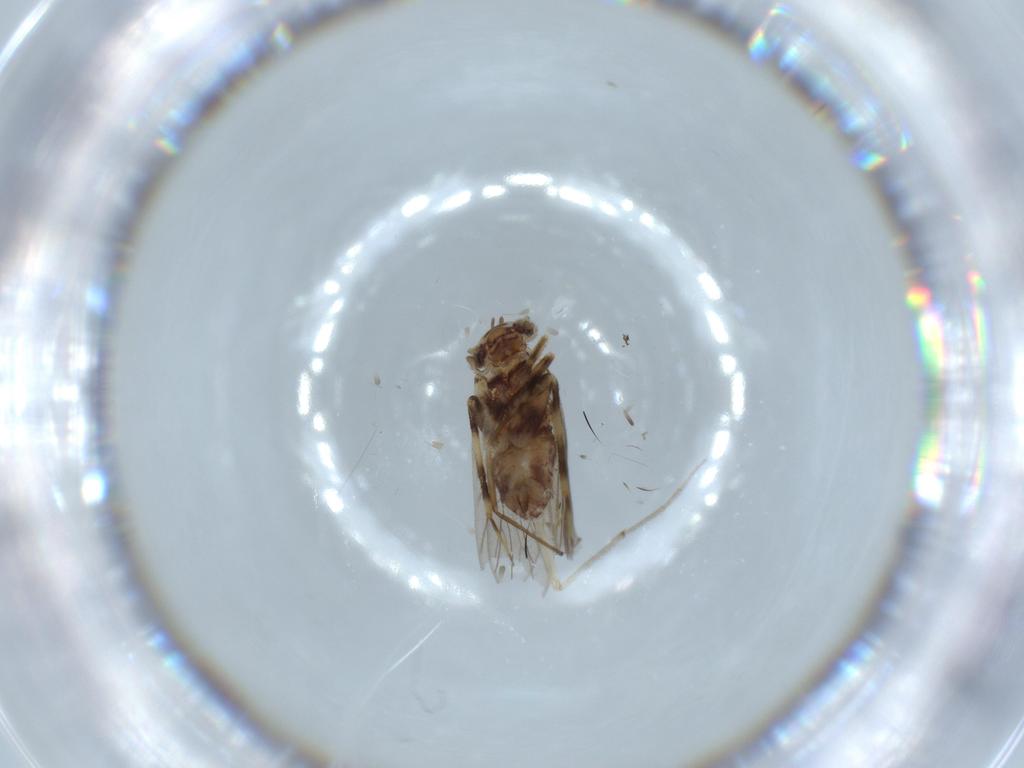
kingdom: Animalia
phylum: Arthropoda
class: Insecta
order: Psocodea
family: Lepidopsocidae
